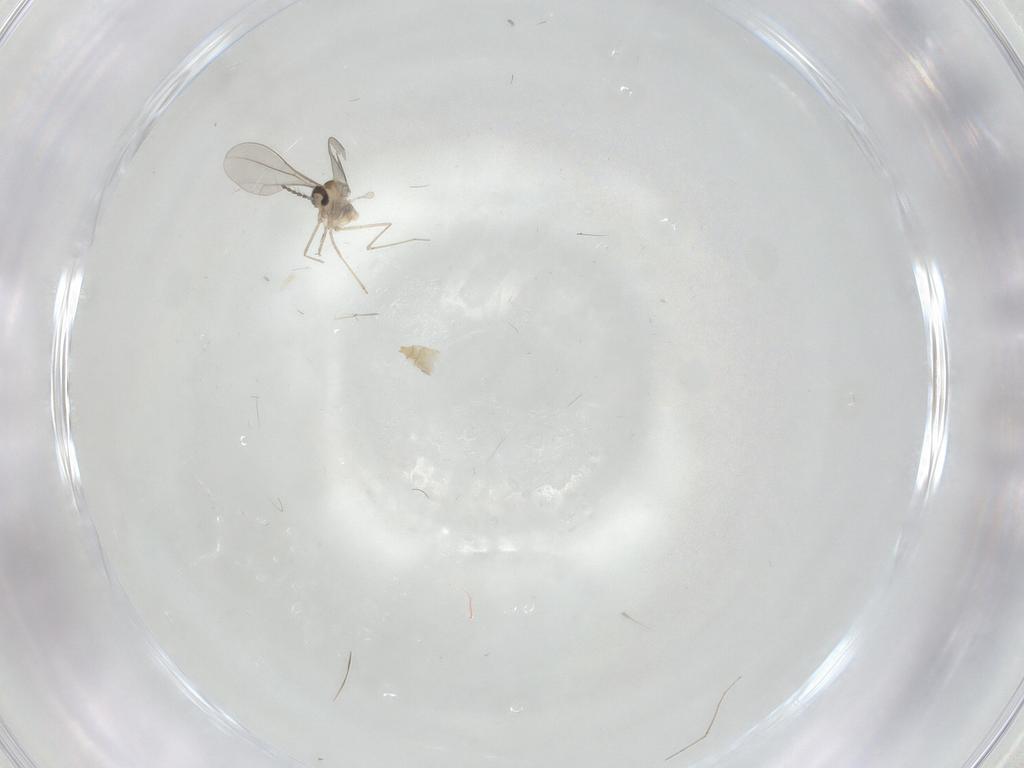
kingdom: Animalia
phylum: Arthropoda
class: Insecta
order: Diptera
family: Cecidomyiidae
